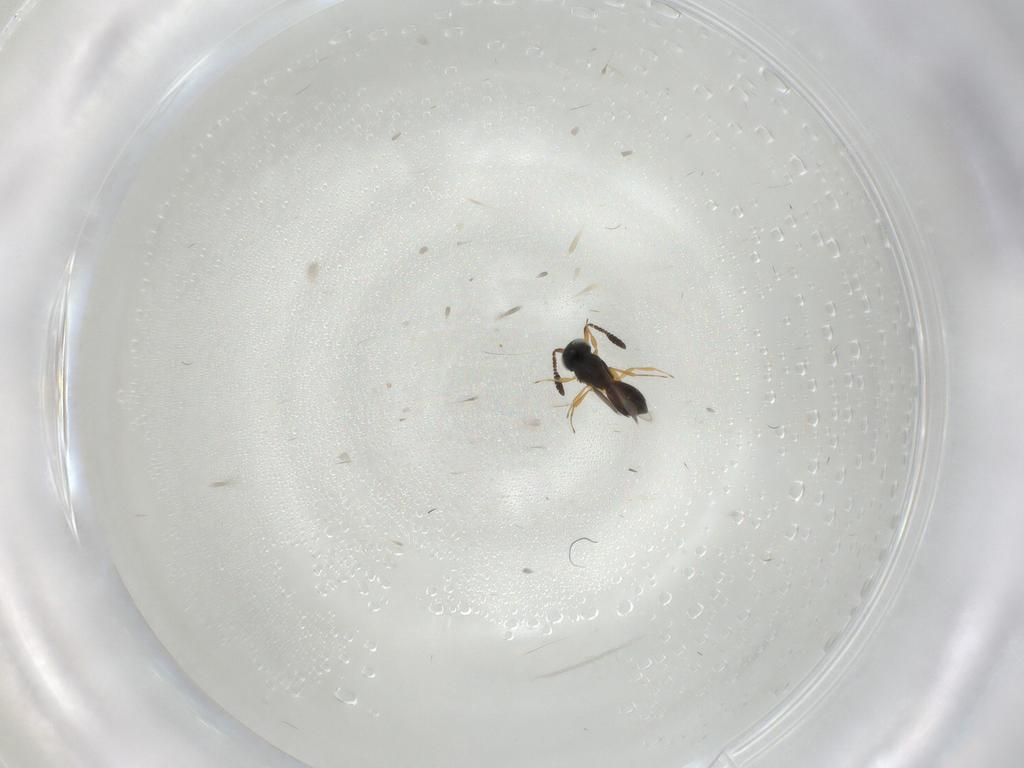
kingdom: Animalia
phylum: Arthropoda
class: Insecta
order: Hymenoptera
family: Scelionidae
